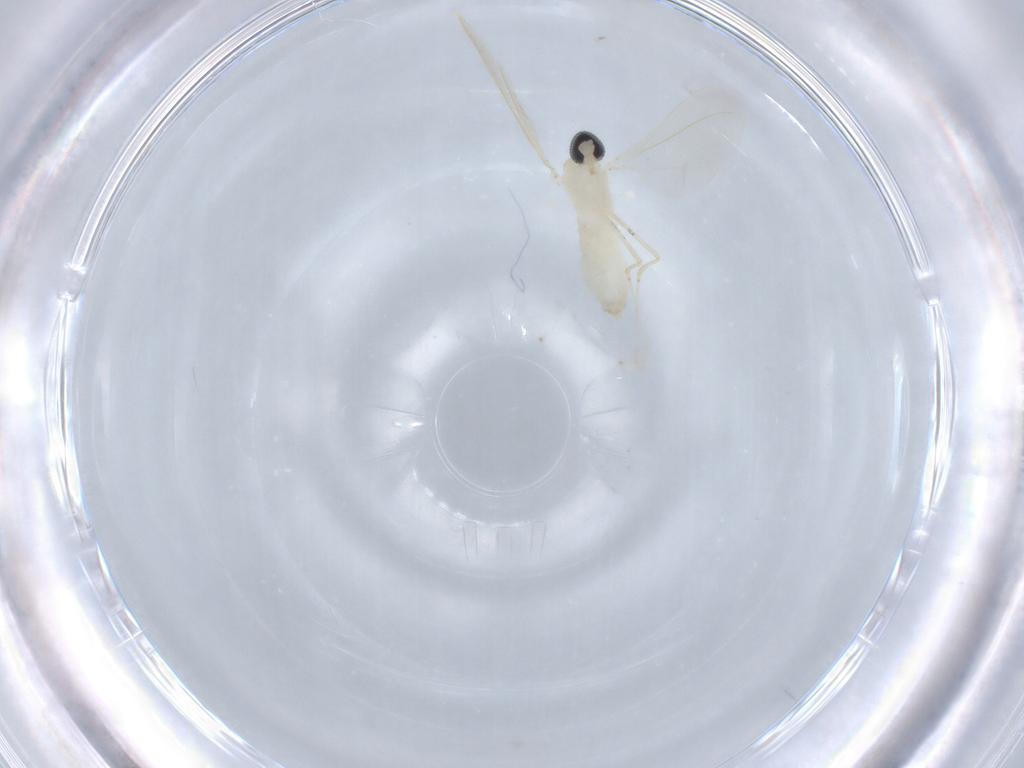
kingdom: Animalia
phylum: Arthropoda
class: Insecta
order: Diptera
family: Cecidomyiidae
